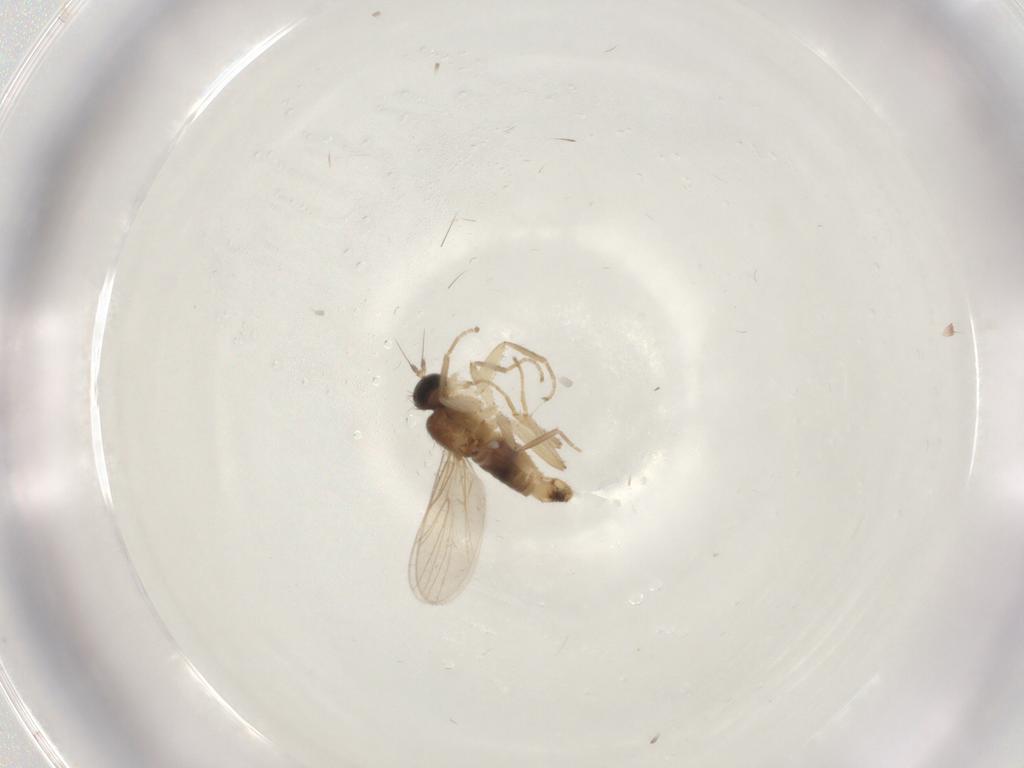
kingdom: Animalia
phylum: Arthropoda
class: Insecta
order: Diptera
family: Hybotidae
